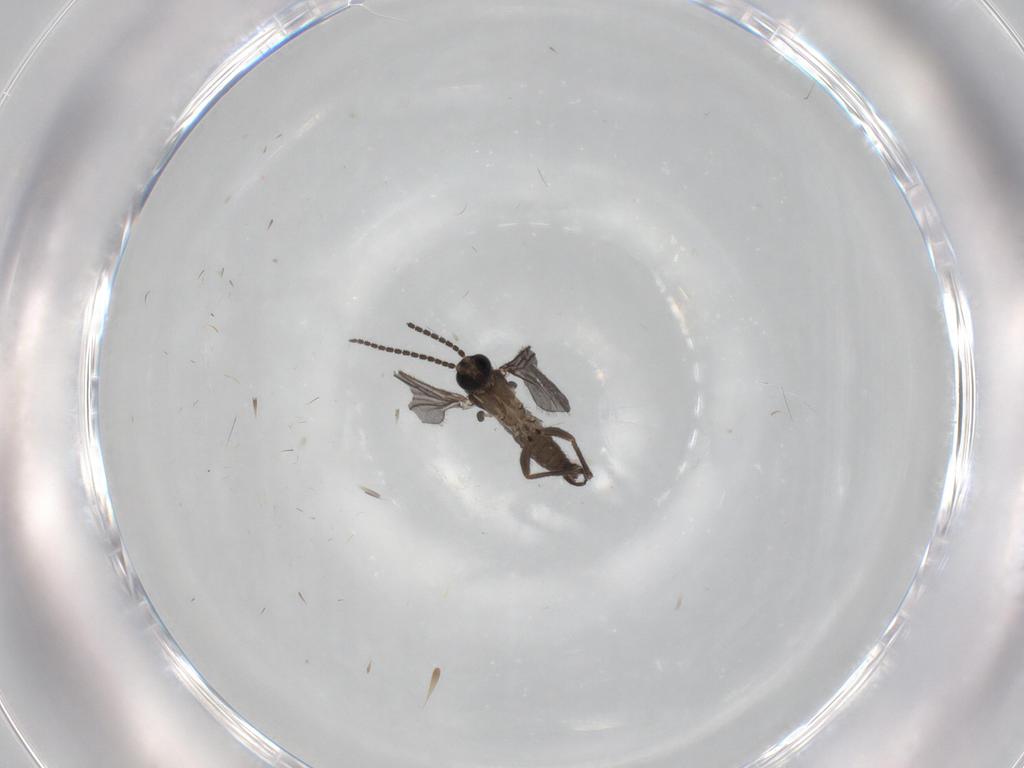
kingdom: Animalia
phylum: Arthropoda
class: Insecta
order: Diptera
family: Sciaridae
